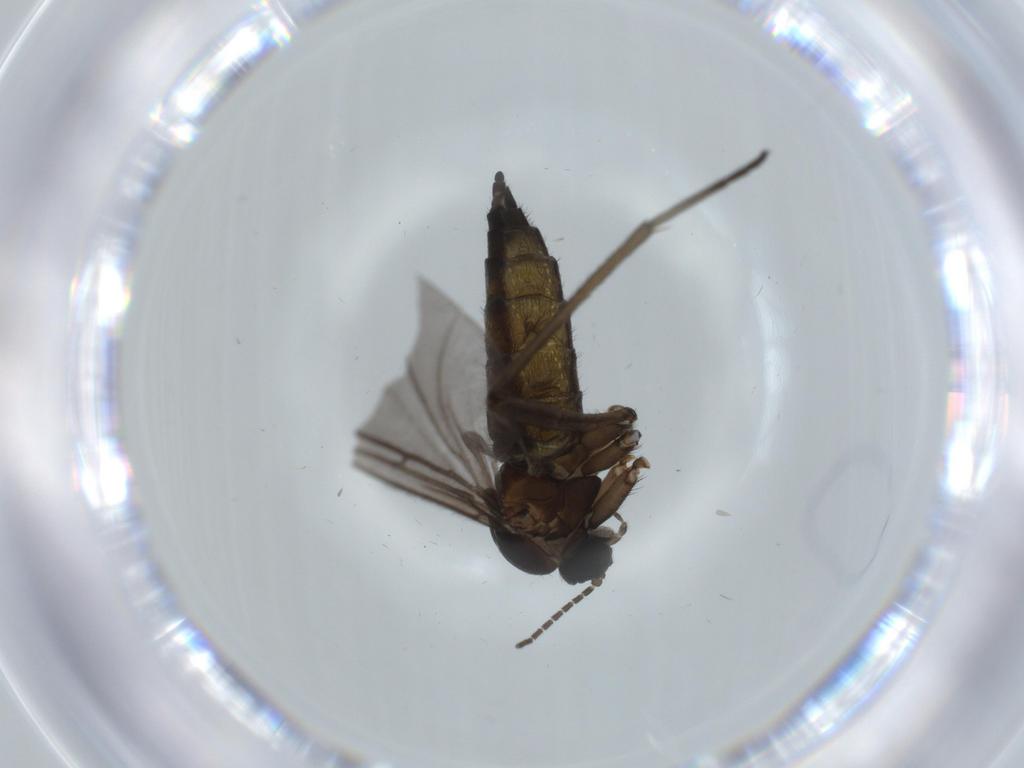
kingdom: Animalia
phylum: Arthropoda
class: Insecta
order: Diptera
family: Sciaridae
